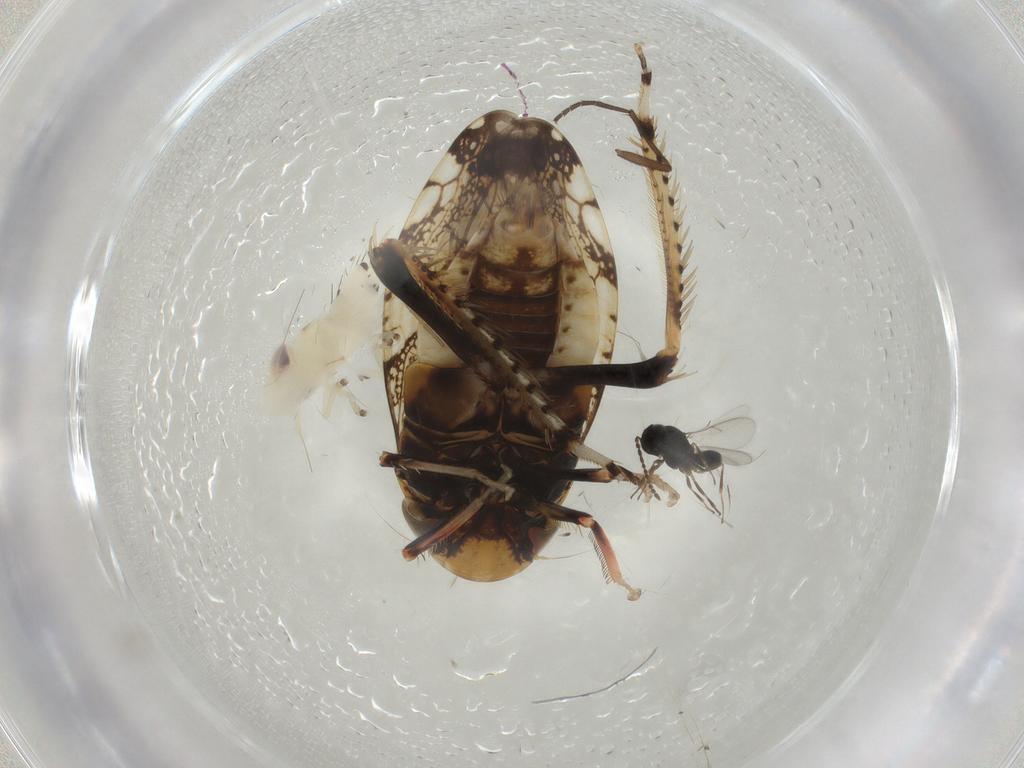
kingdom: Animalia
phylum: Arthropoda
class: Insecta
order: Hymenoptera
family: Scelionidae
